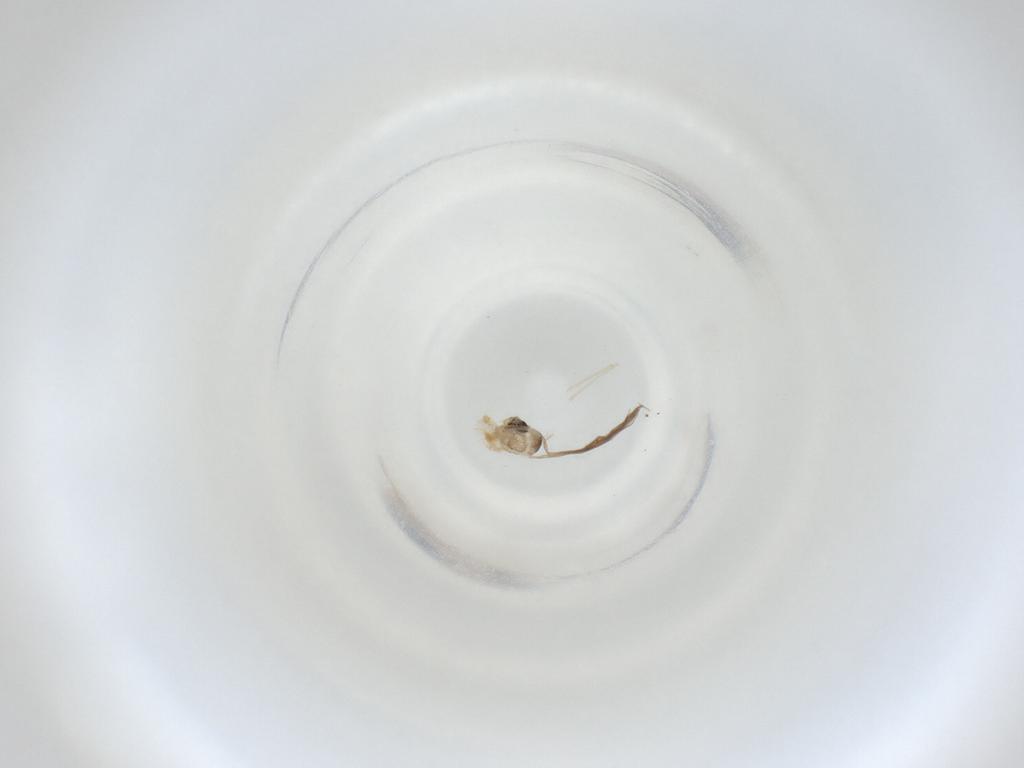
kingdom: Animalia
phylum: Arthropoda
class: Insecta
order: Diptera
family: Cecidomyiidae
